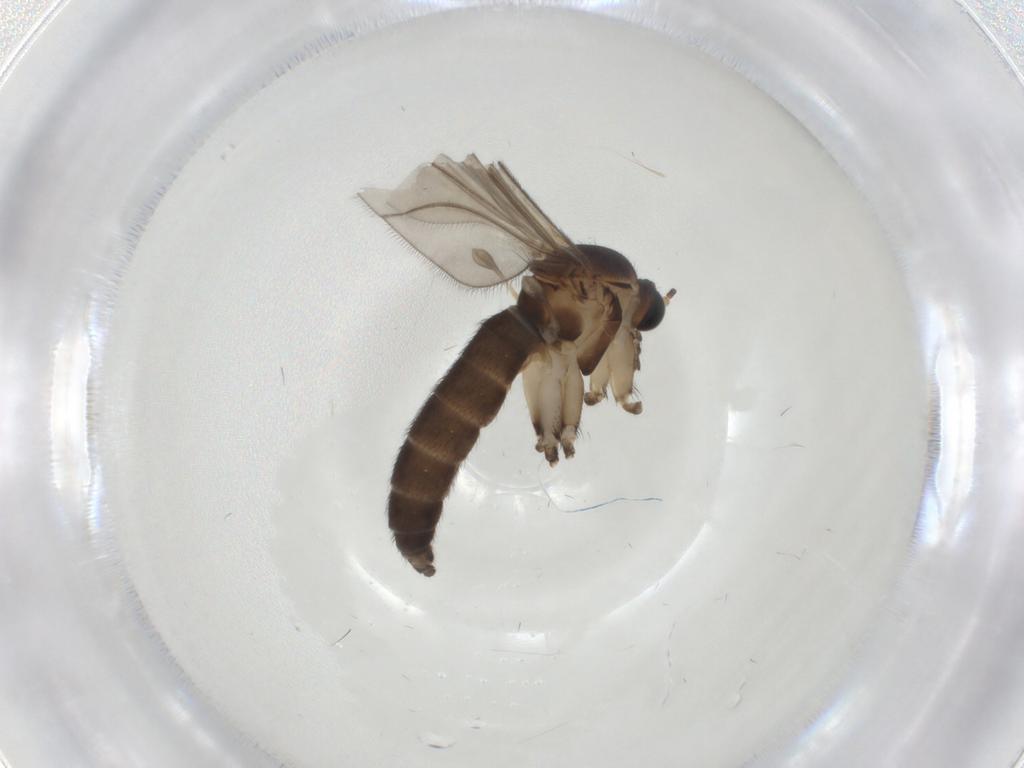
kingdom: Animalia
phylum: Arthropoda
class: Insecta
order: Diptera
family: Sciaridae
